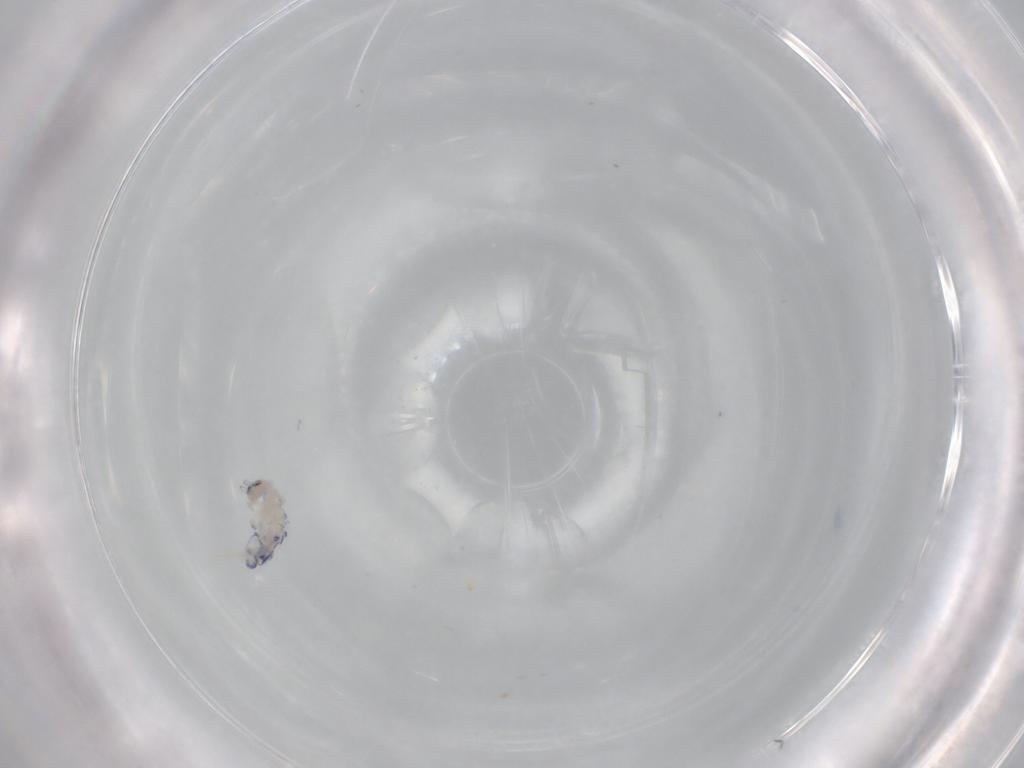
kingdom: Animalia
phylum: Arthropoda
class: Collembola
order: Entomobryomorpha
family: Entomobryidae
